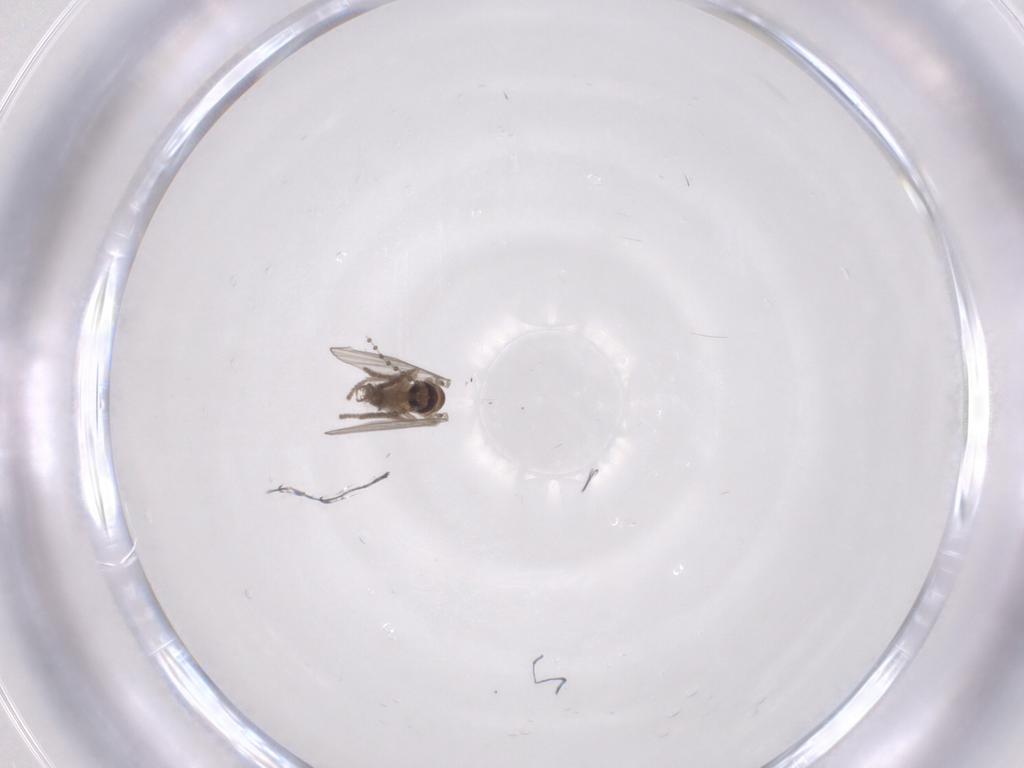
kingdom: Animalia
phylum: Arthropoda
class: Insecta
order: Diptera
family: Psychodidae
